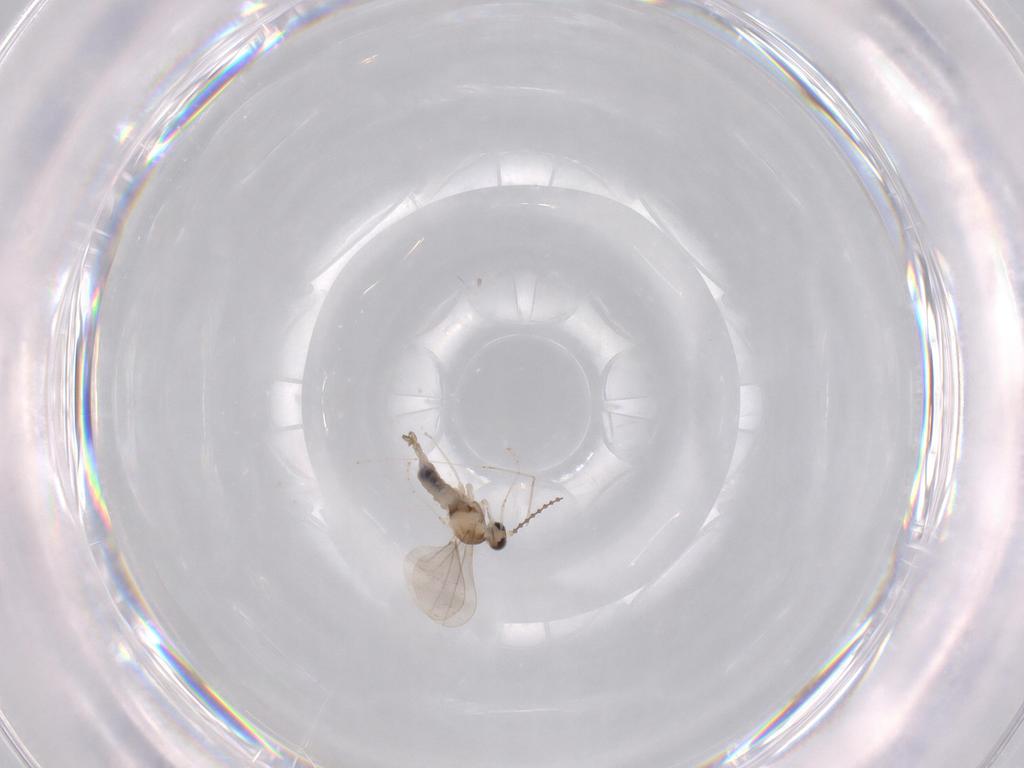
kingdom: Animalia
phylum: Arthropoda
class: Insecta
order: Diptera
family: Cecidomyiidae
